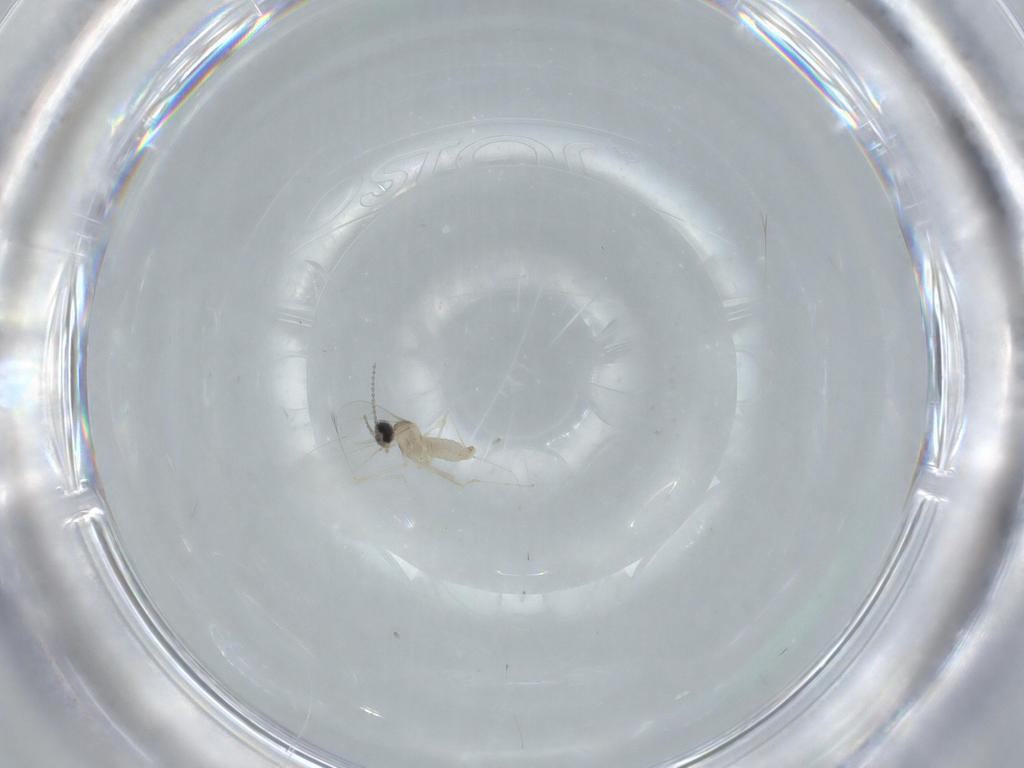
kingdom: Animalia
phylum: Arthropoda
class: Insecta
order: Diptera
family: Cecidomyiidae
